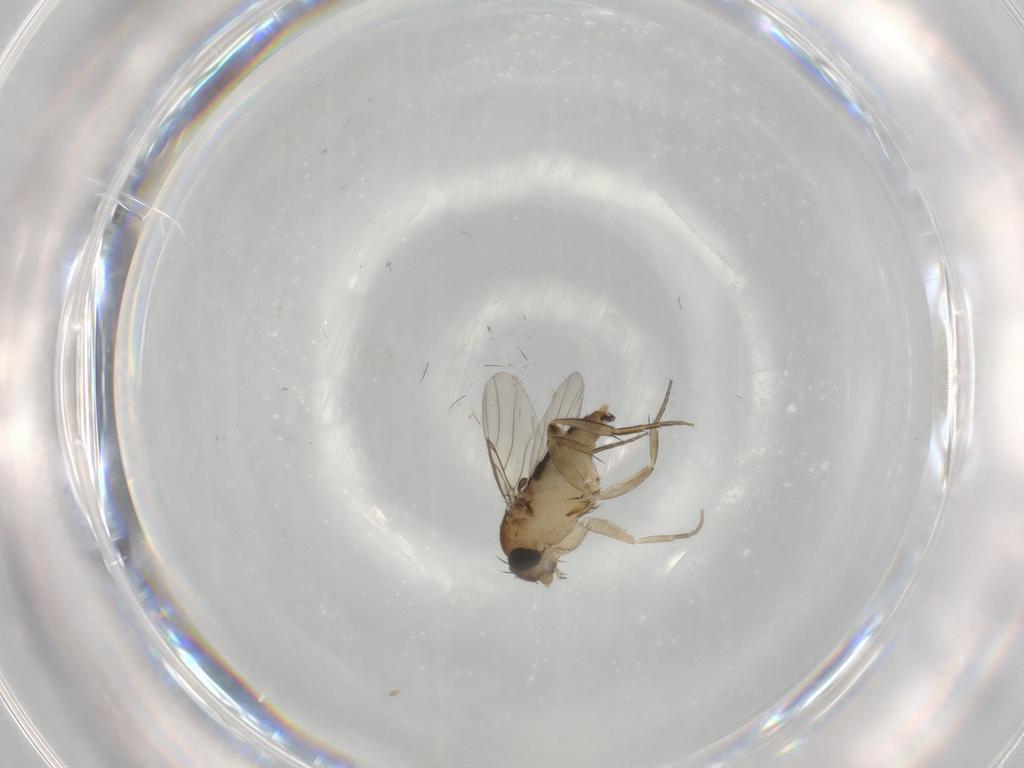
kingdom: Animalia
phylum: Arthropoda
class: Insecta
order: Diptera
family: Phoridae
